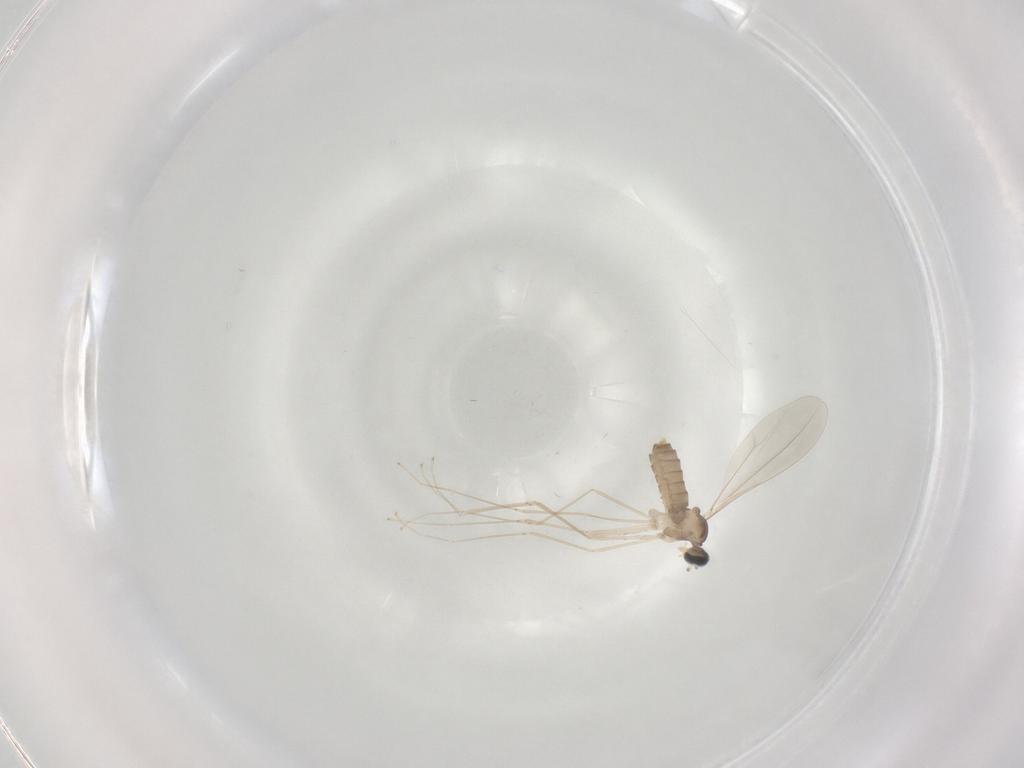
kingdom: Animalia
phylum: Arthropoda
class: Insecta
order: Diptera
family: Cecidomyiidae
